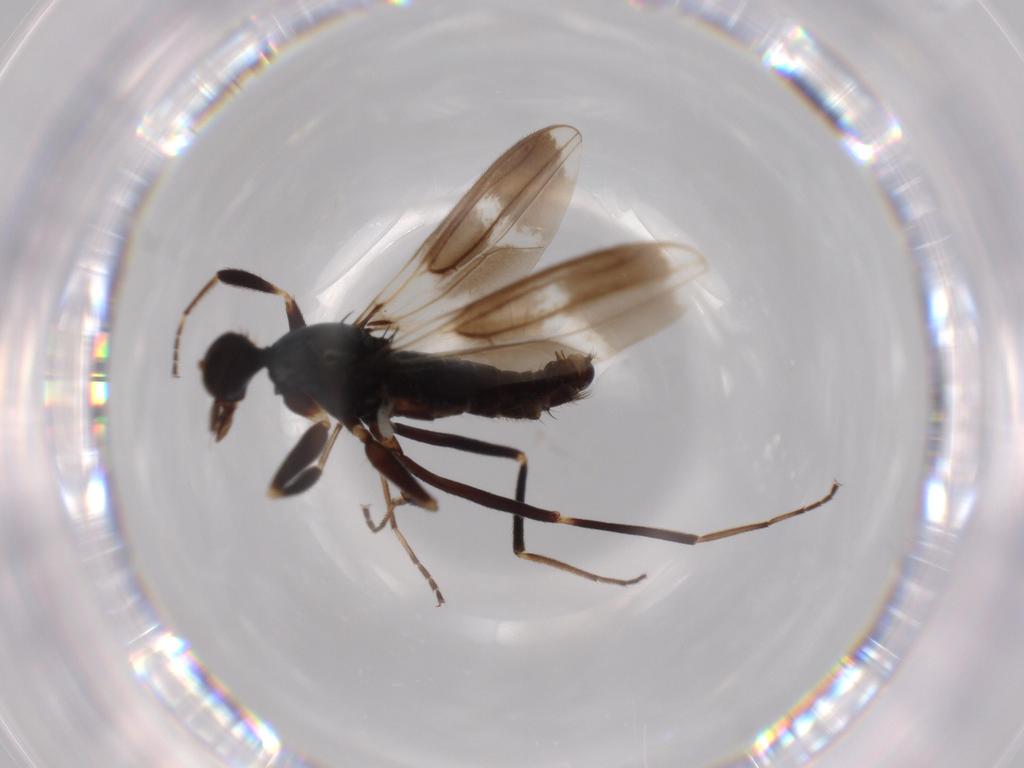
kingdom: Animalia
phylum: Arthropoda
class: Insecta
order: Diptera
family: Hybotidae
